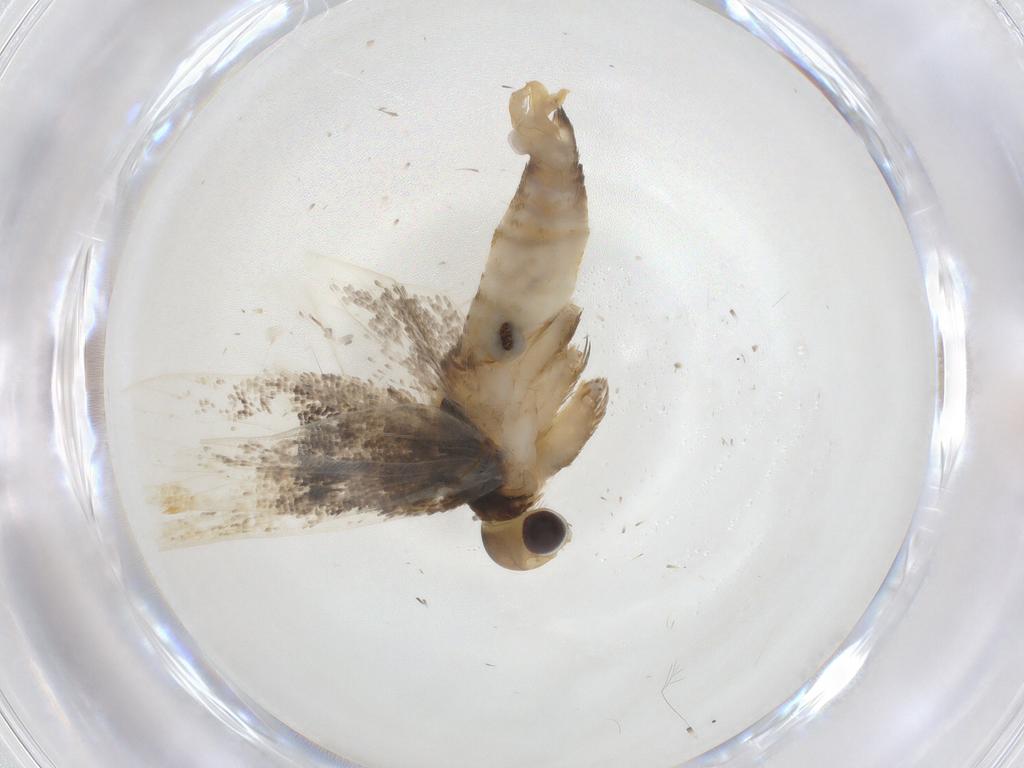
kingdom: Animalia
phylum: Arthropoda
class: Insecta
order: Lepidoptera
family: Lecithoceridae
